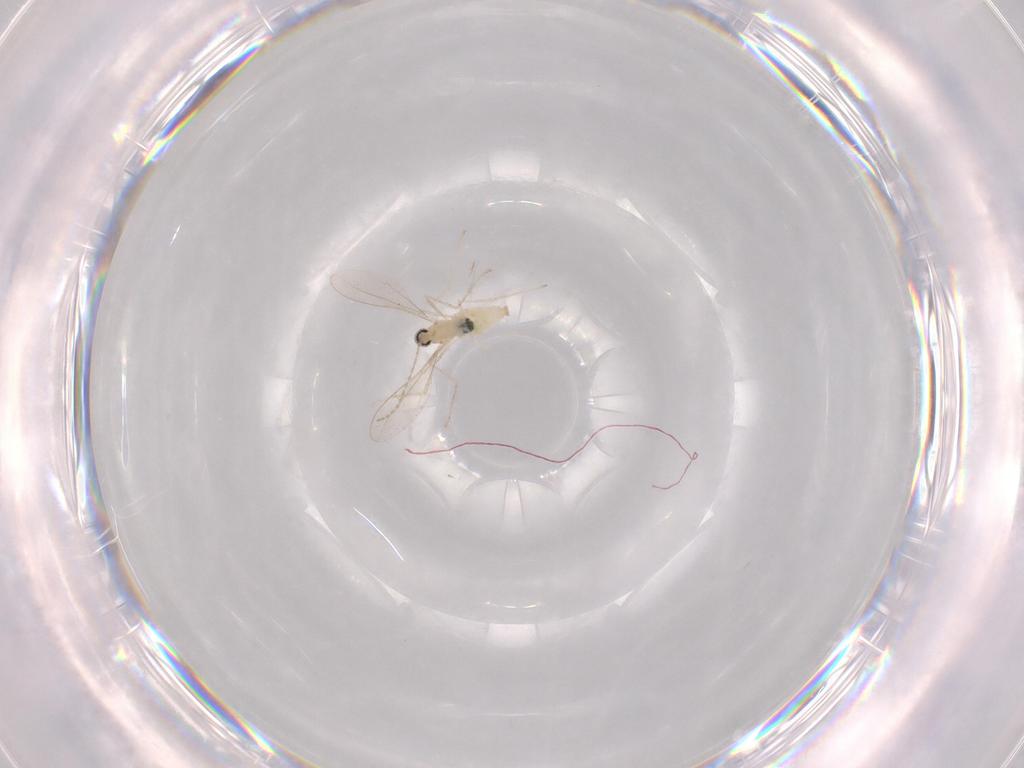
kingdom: Animalia
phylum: Arthropoda
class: Insecta
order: Diptera
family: Cecidomyiidae
